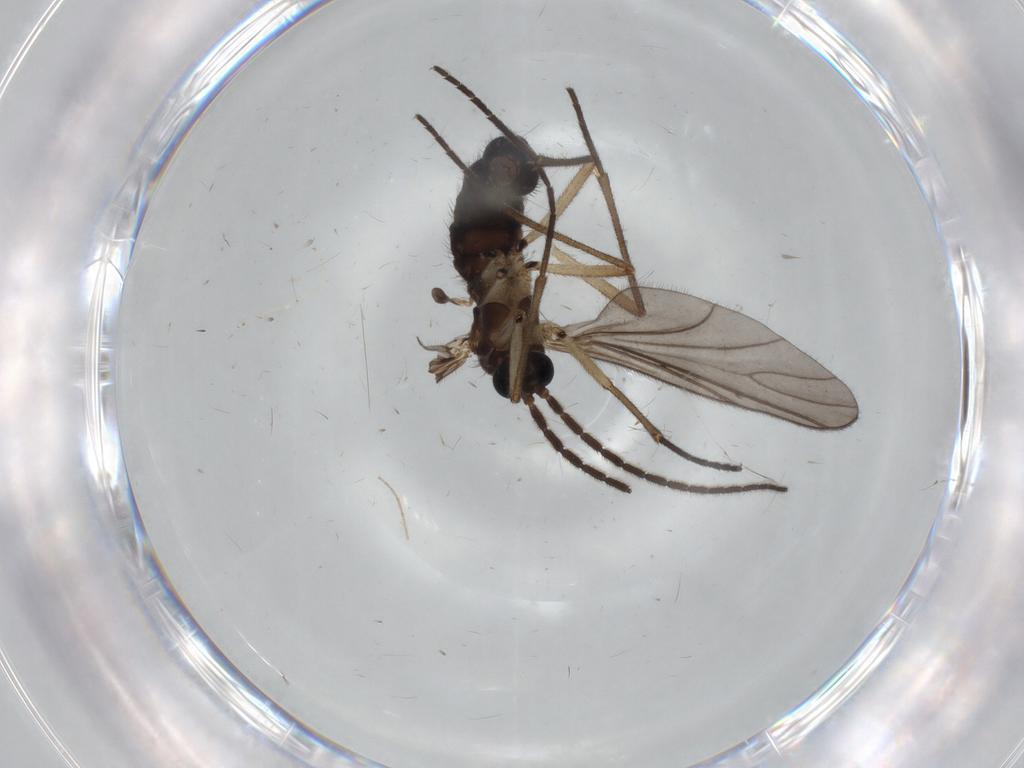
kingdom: Animalia
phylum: Arthropoda
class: Insecta
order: Diptera
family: Sciaridae
